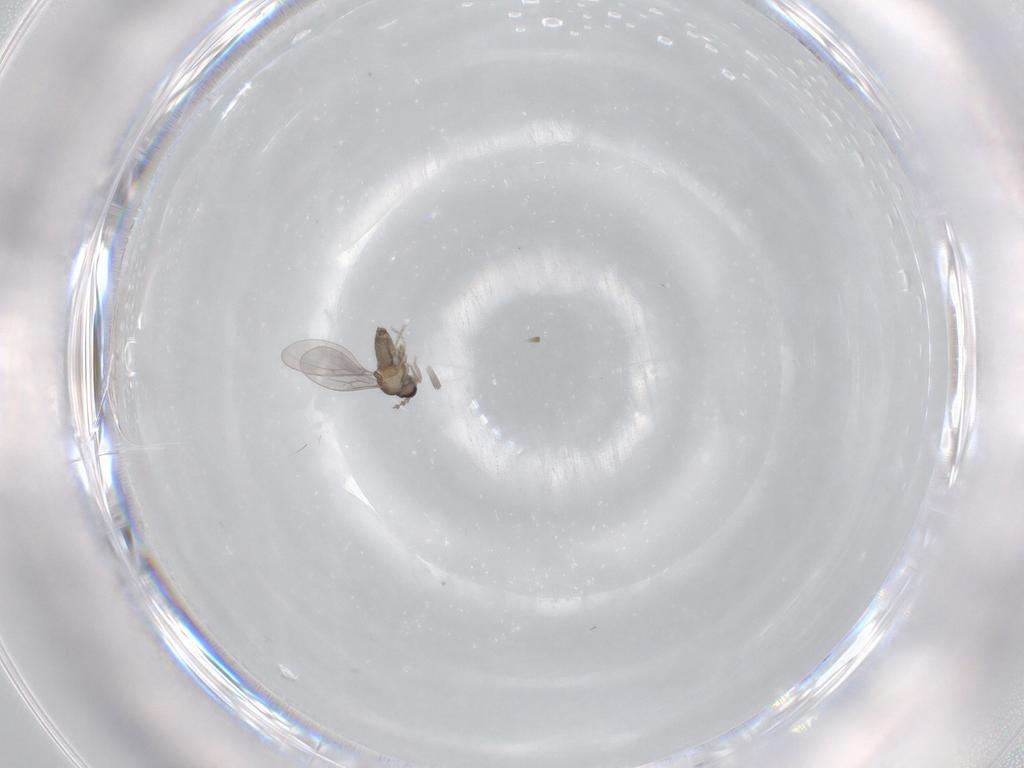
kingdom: Animalia
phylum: Arthropoda
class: Insecta
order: Diptera
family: Cecidomyiidae
